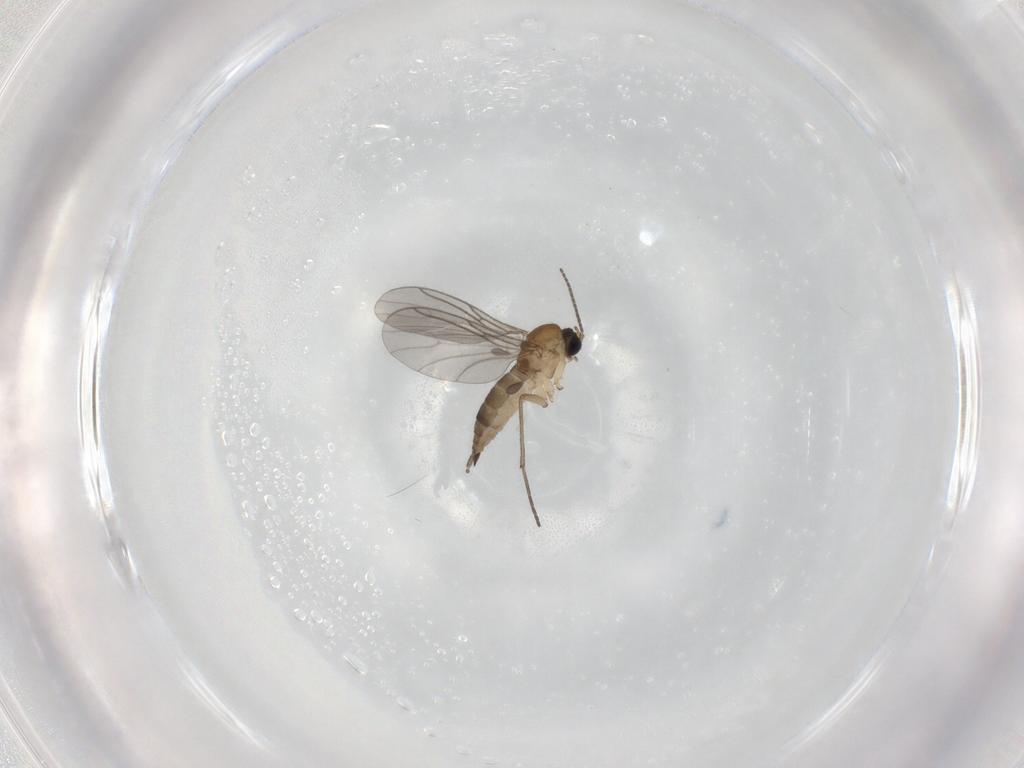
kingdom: Animalia
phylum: Arthropoda
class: Insecta
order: Diptera
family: Sciaridae
